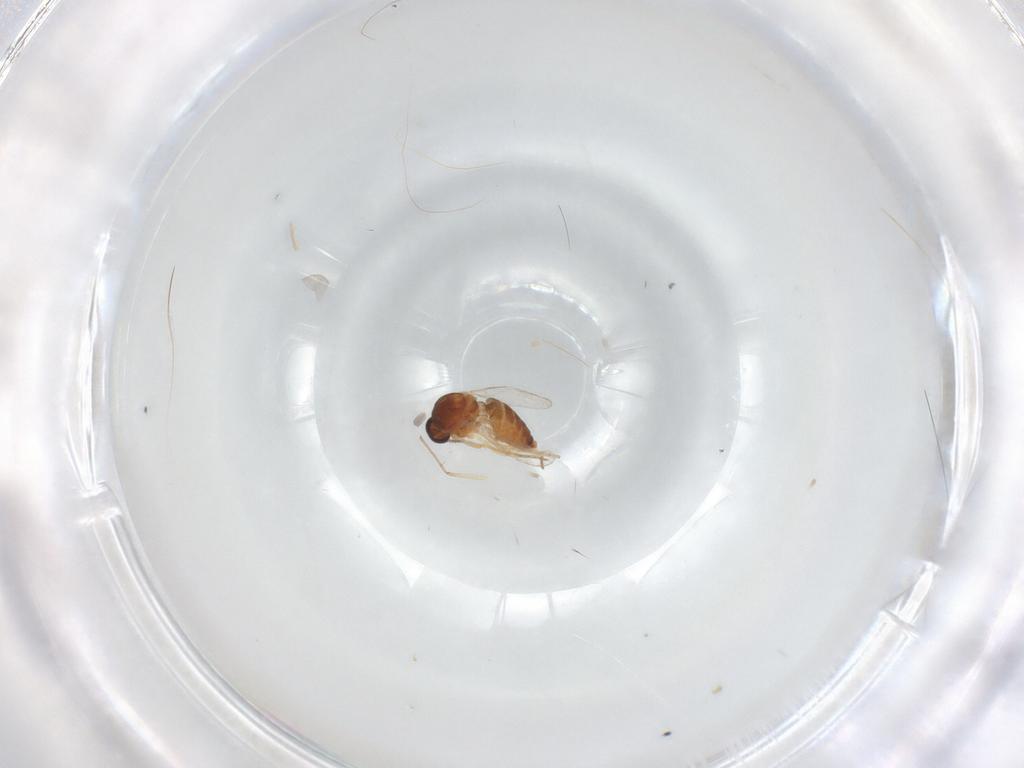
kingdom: Animalia
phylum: Arthropoda
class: Insecta
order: Diptera
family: Ceratopogonidae
